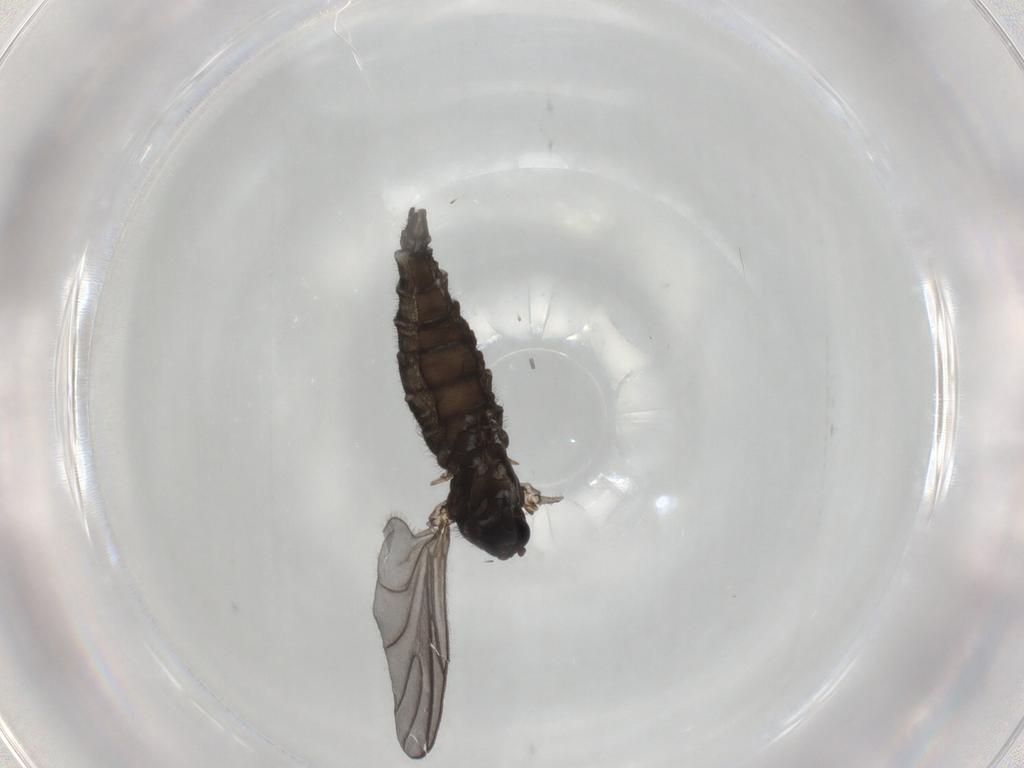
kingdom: Animalia
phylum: Arthropoda
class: Insecta
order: Diptera
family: Sciaridae
